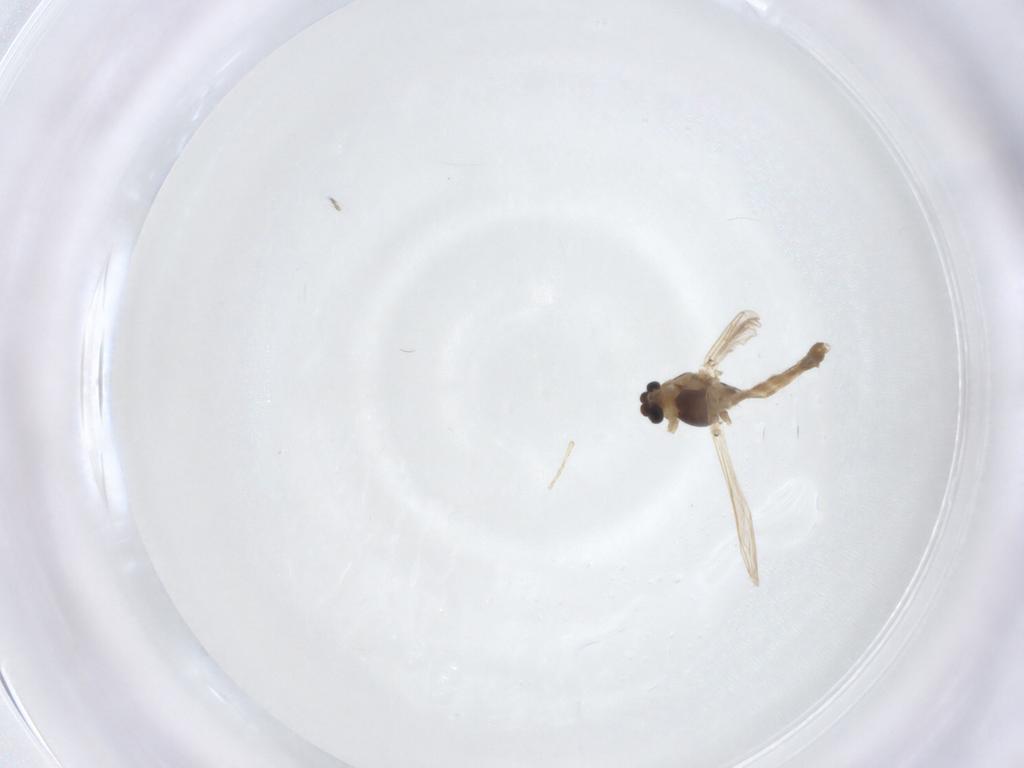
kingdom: Animalia
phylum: Arthropoda
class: Insecta
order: Diptera
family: Chironomidae
